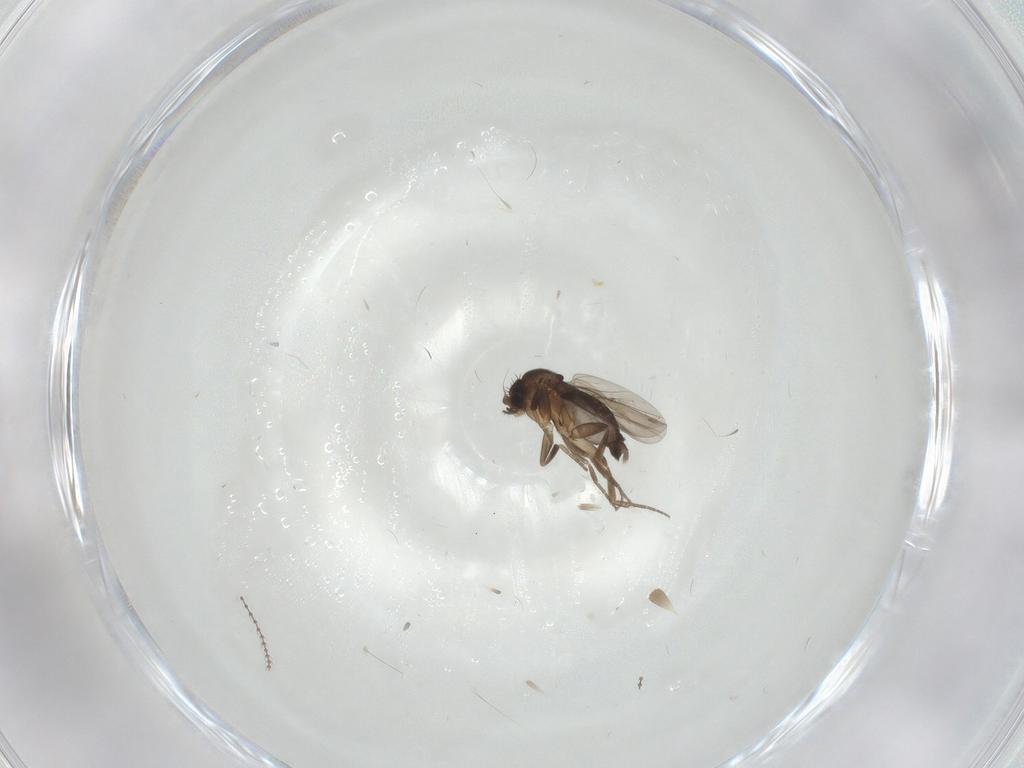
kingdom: Animalia
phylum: Arthropoda
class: Insecta
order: Diptera
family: Phoridae
